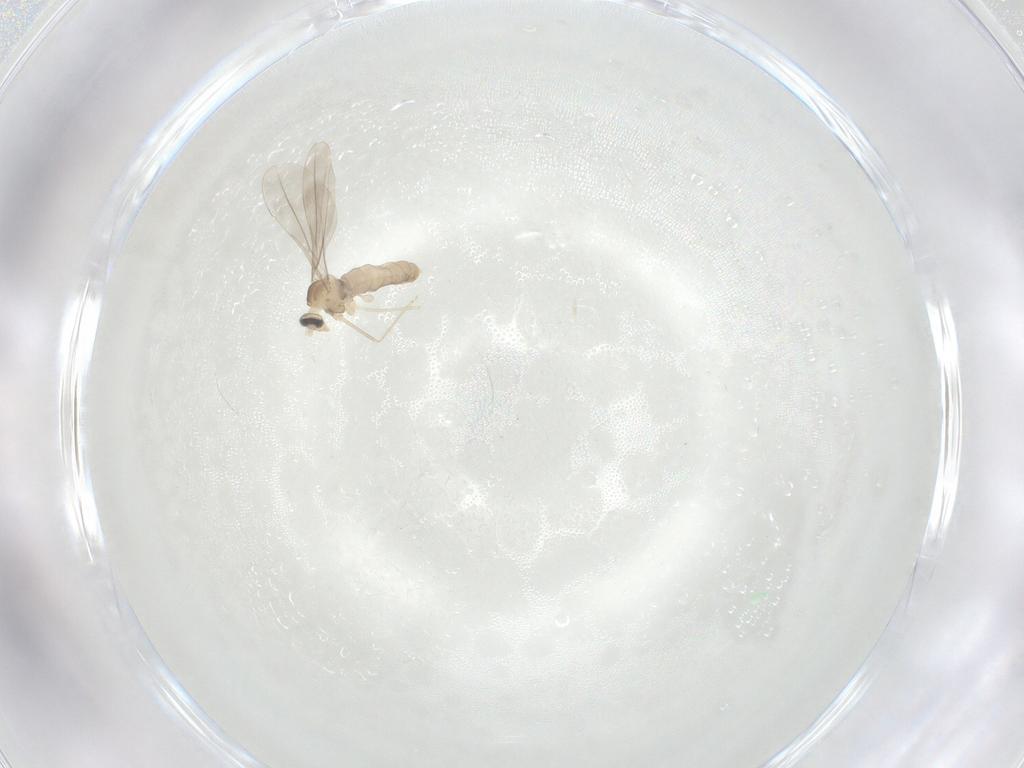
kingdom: Animalia
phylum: Arthropoda
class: Insecta
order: Diptera
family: Cecidomyiidae
